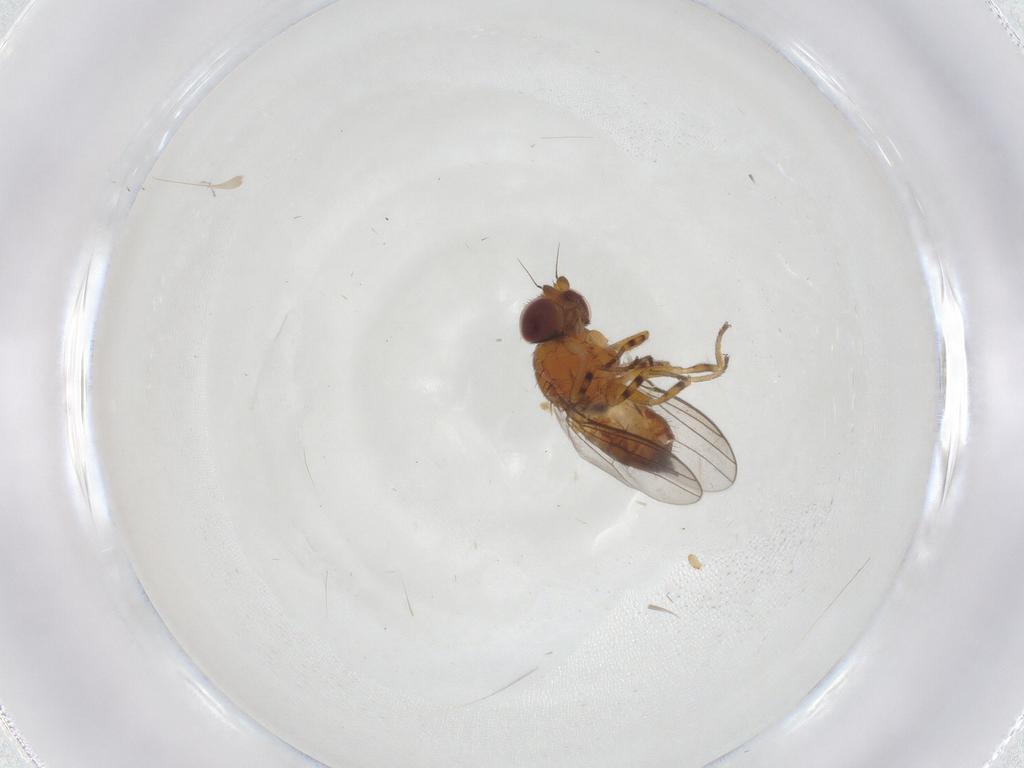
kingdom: Animalia
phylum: Arthropoda
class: Insecta
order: Diptera
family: Chloropidae
